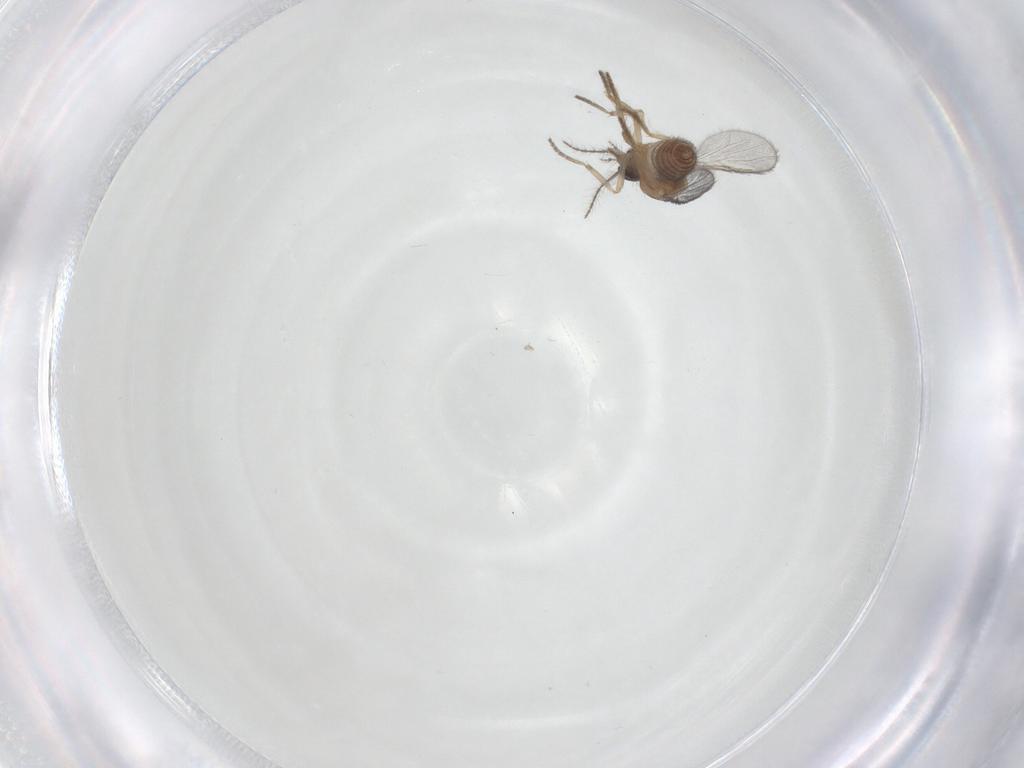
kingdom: Animalia
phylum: Arthropoda
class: Insecta
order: Diptera
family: Ceratopogonidae
